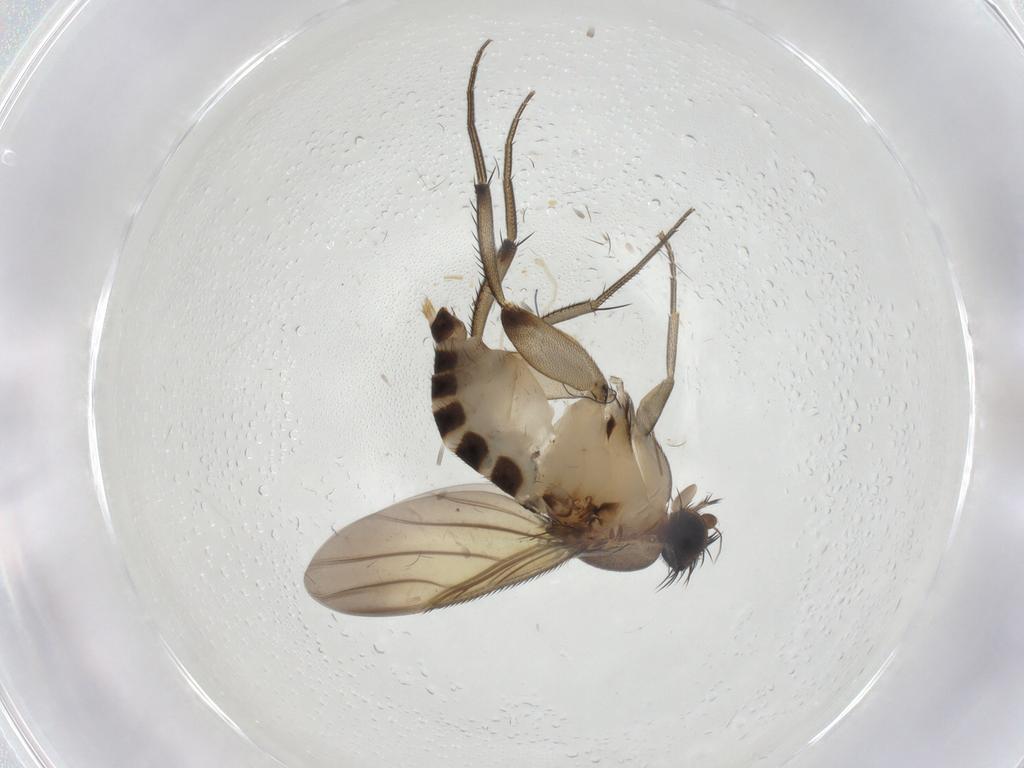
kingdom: Animalia
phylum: Arthropoda
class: Insecta
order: Diptera
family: Phoridae
